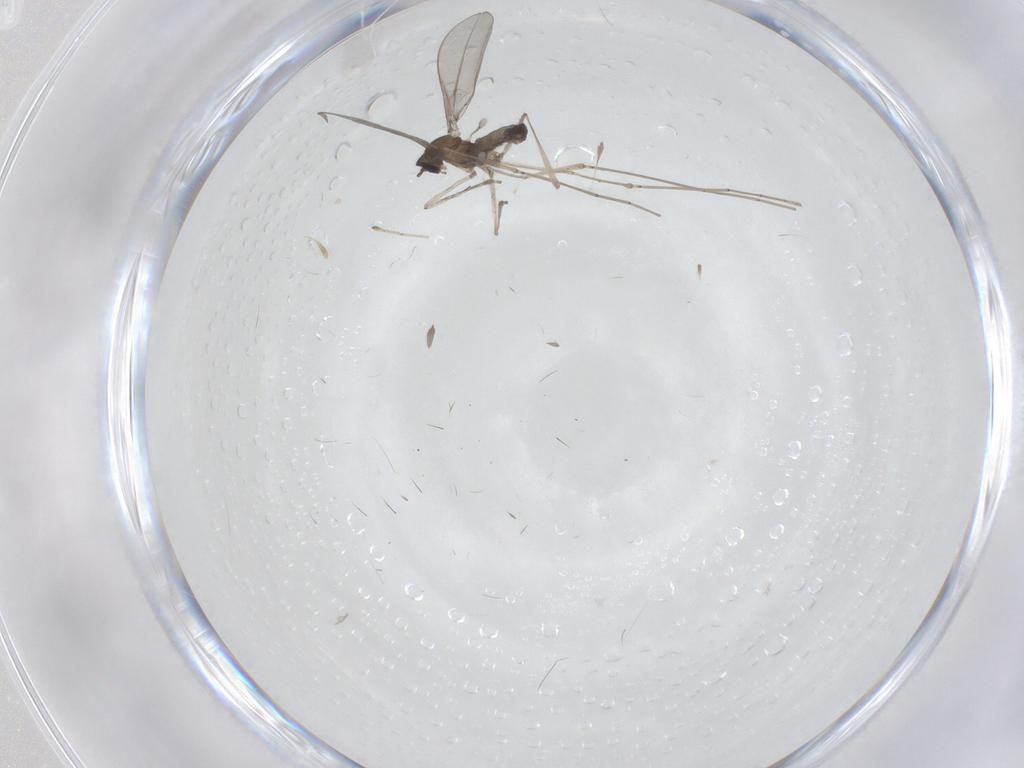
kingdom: Animalia
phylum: Arthropoda
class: Insecta
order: Diptera
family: Cecidomyiidae
